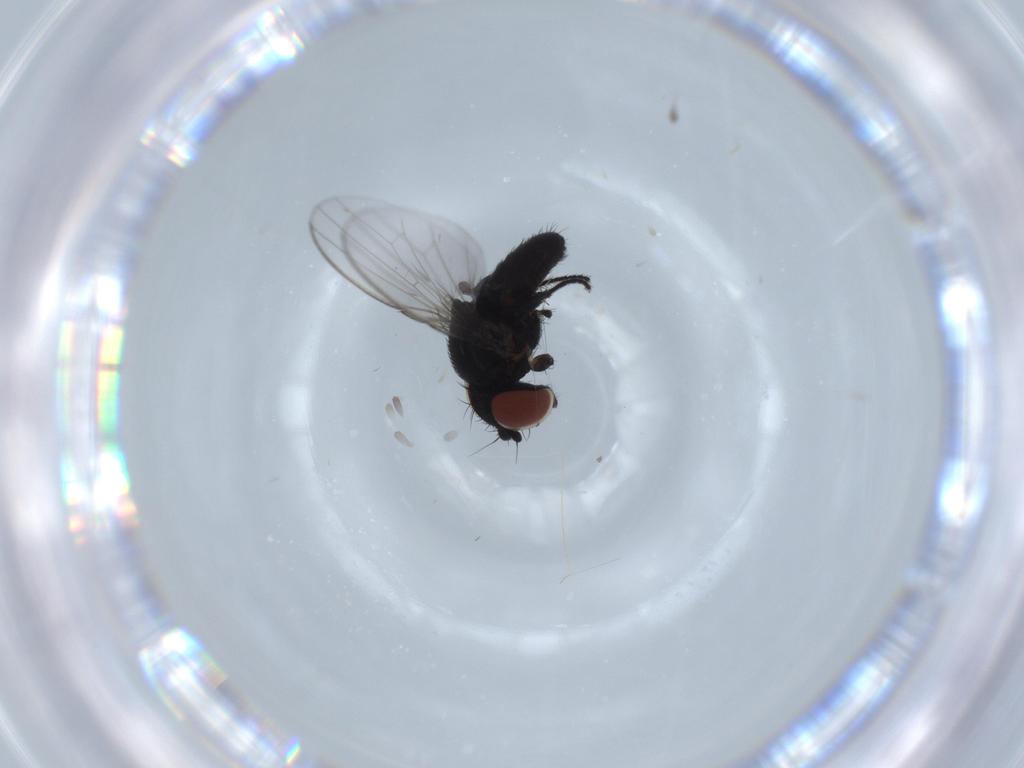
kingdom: Animalia
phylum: Arthropoda
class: Insecta
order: Diptera
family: Milichiidae
